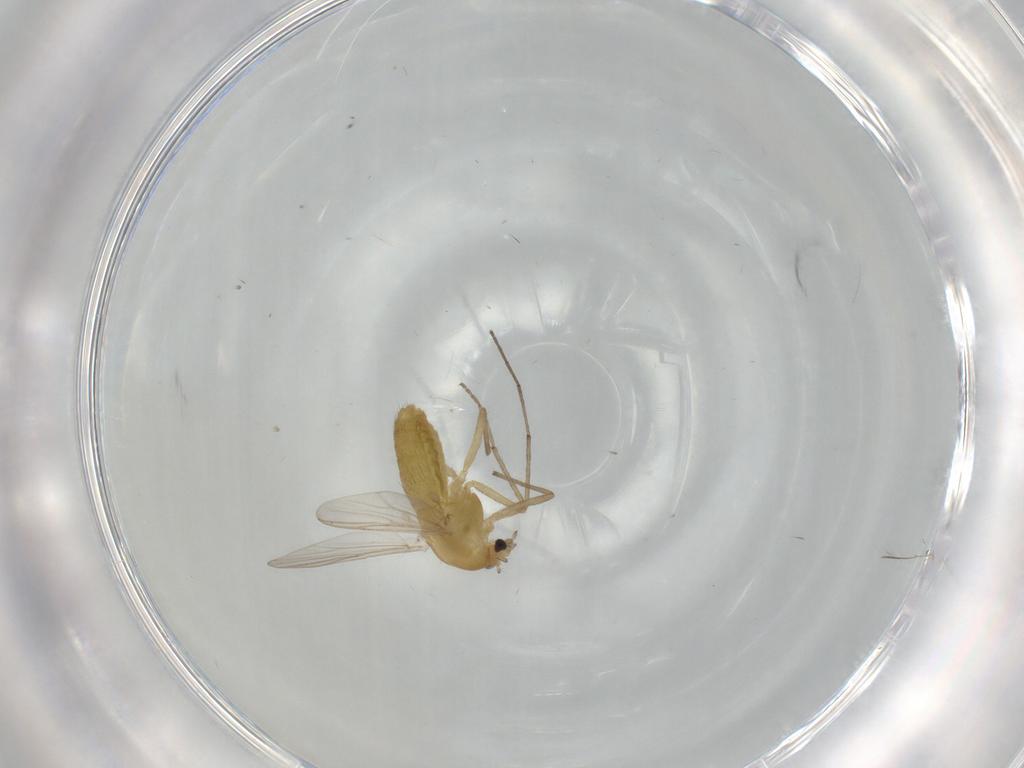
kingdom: Animalia
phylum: Arthropoda
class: Insecta
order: Diptera
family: Chironomidae
